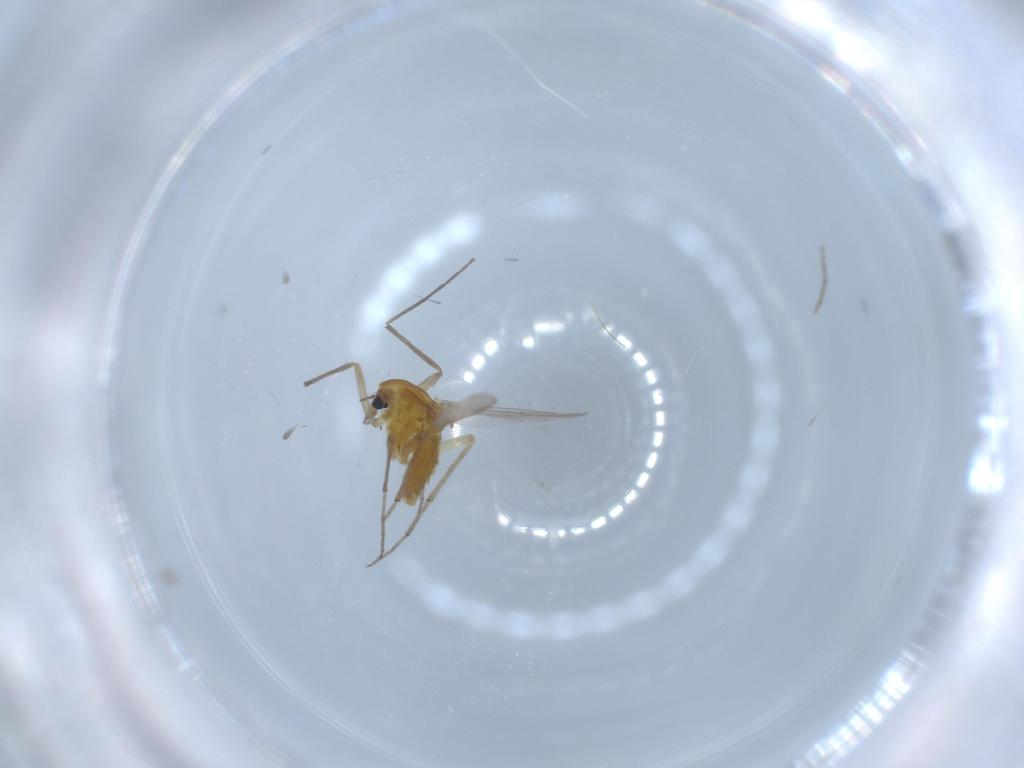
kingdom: Animalia
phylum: Arthropoda
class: Insecta
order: Diptera
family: Chironomidae
